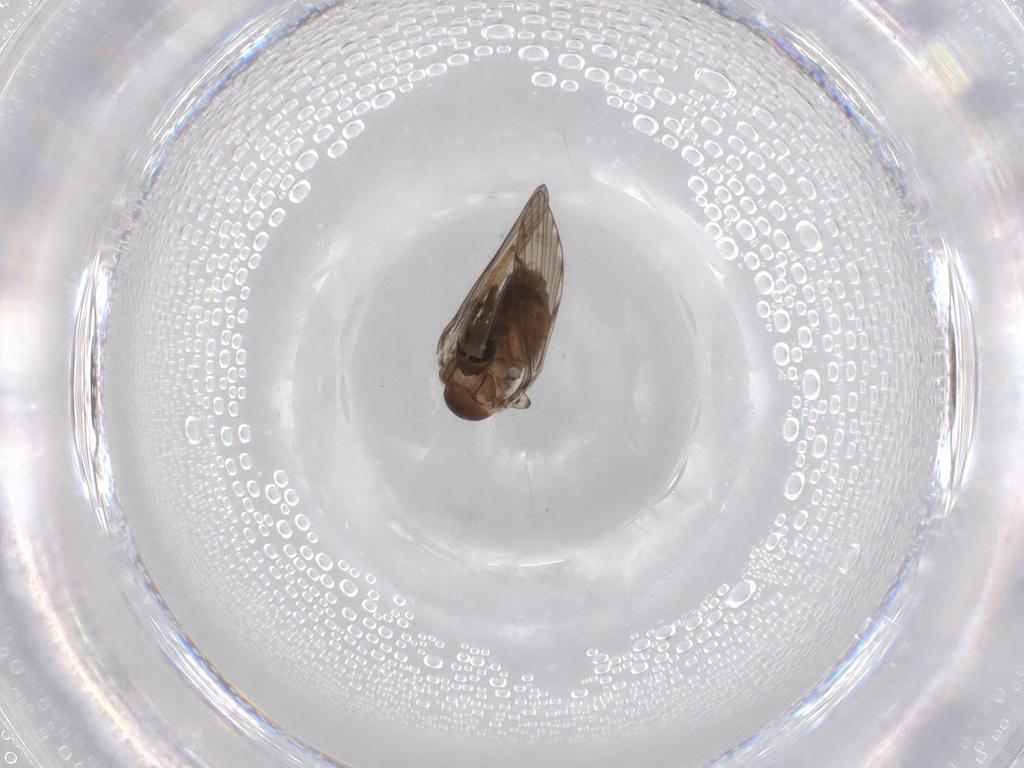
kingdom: Animalia
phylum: Arthropoda
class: Insecta
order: Diptera
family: Psychodidae
